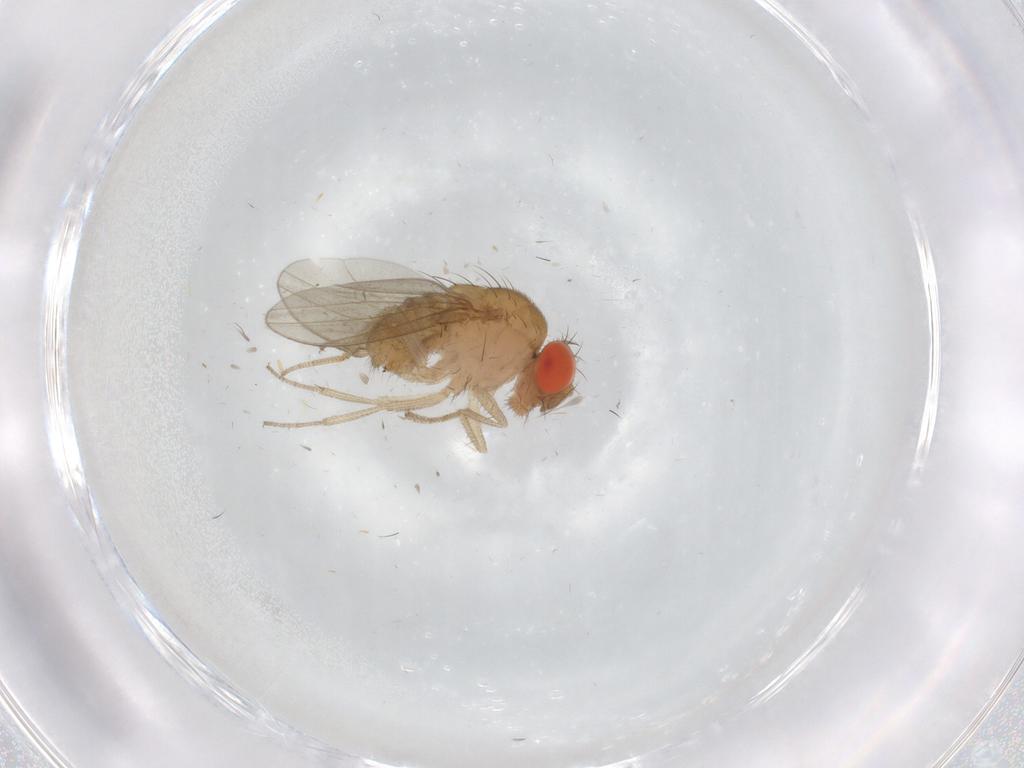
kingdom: Animalia
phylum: Arthropoda
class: Insecta
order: Diptera
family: Drosophilidae
